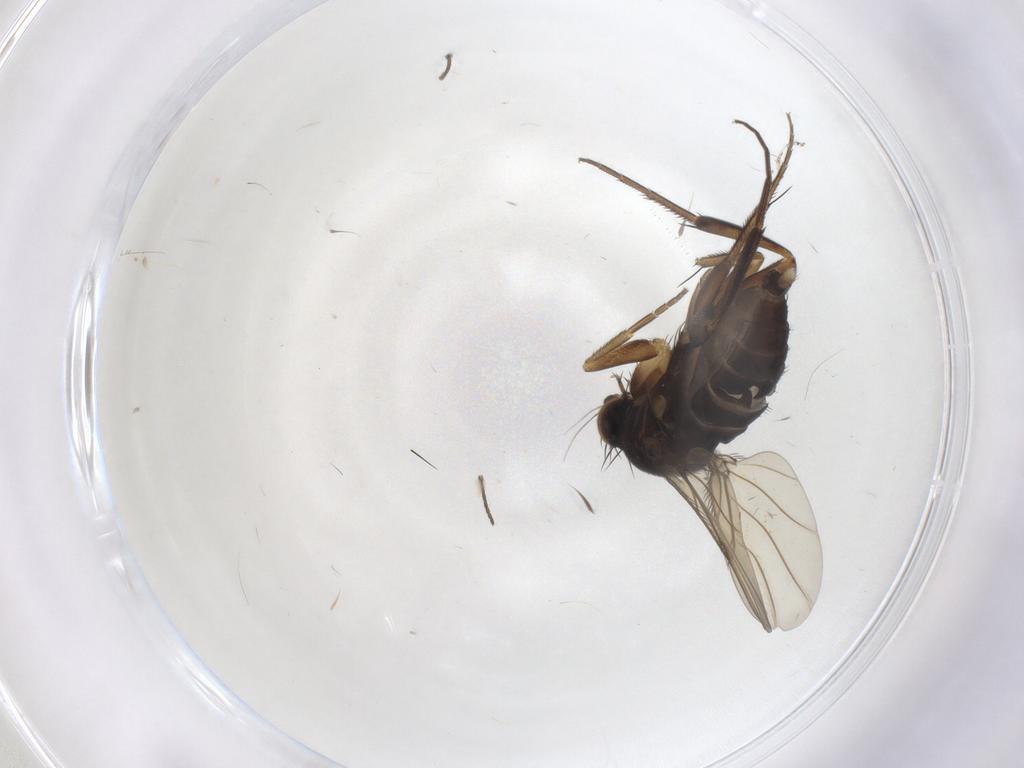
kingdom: Animalia
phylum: Arthropoda
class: Insecta
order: Diptera
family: Phoridae
